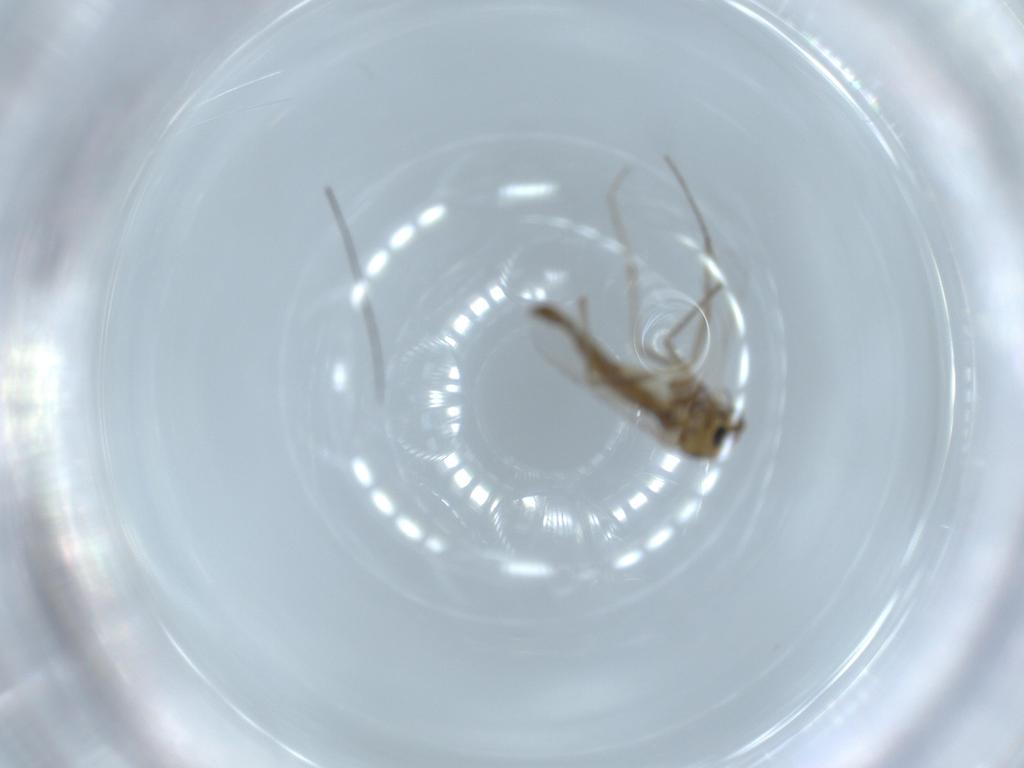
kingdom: Animalia
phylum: Arthropoda
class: Insecta
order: Diptera
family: Chironomidae
